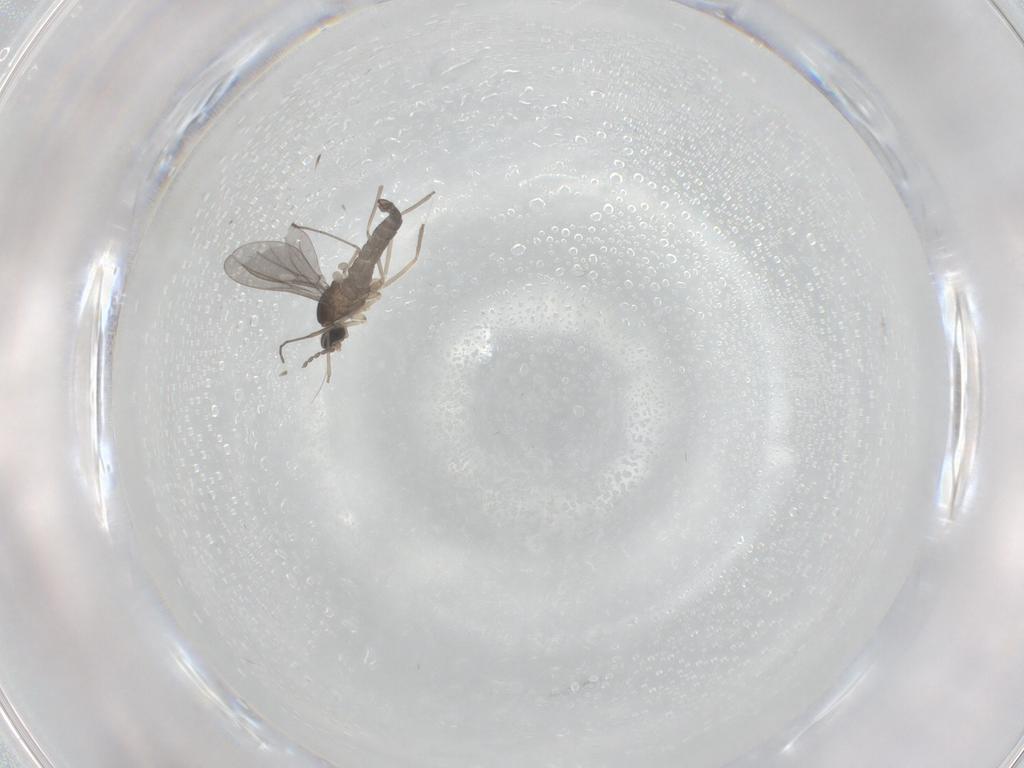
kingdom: Animalia
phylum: Arthropoda
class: Insecta
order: Diptera
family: Cecidomyiidae
